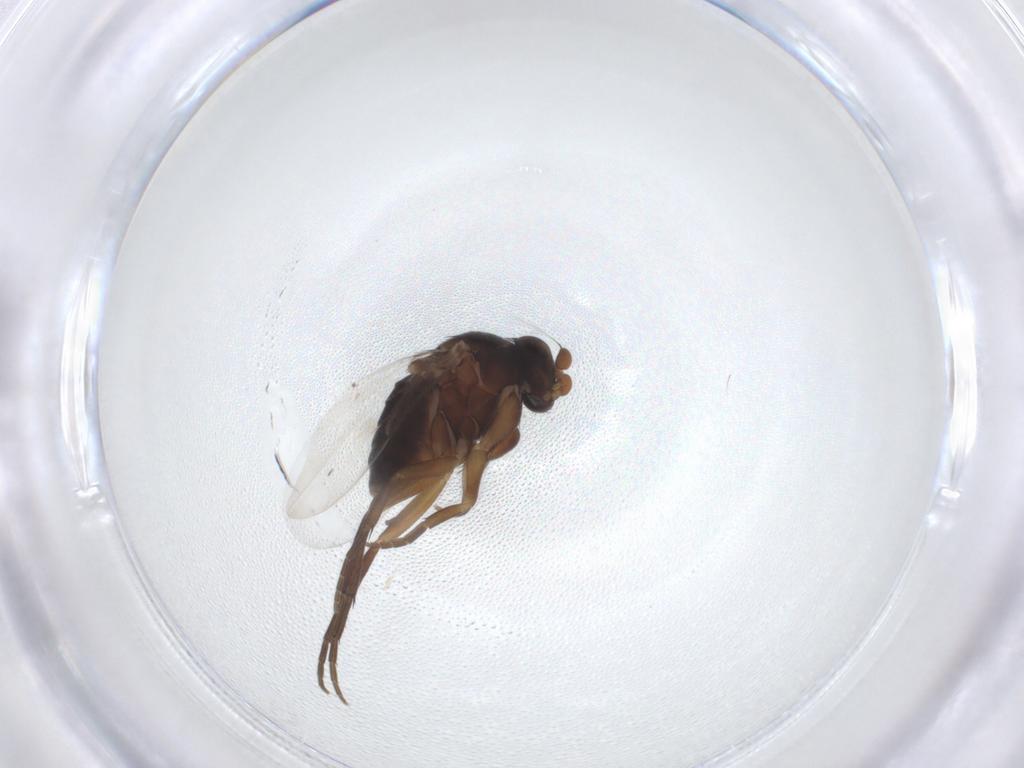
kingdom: Animalia
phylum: Arthropoda
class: Insecta
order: Diptera
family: Phoridae
